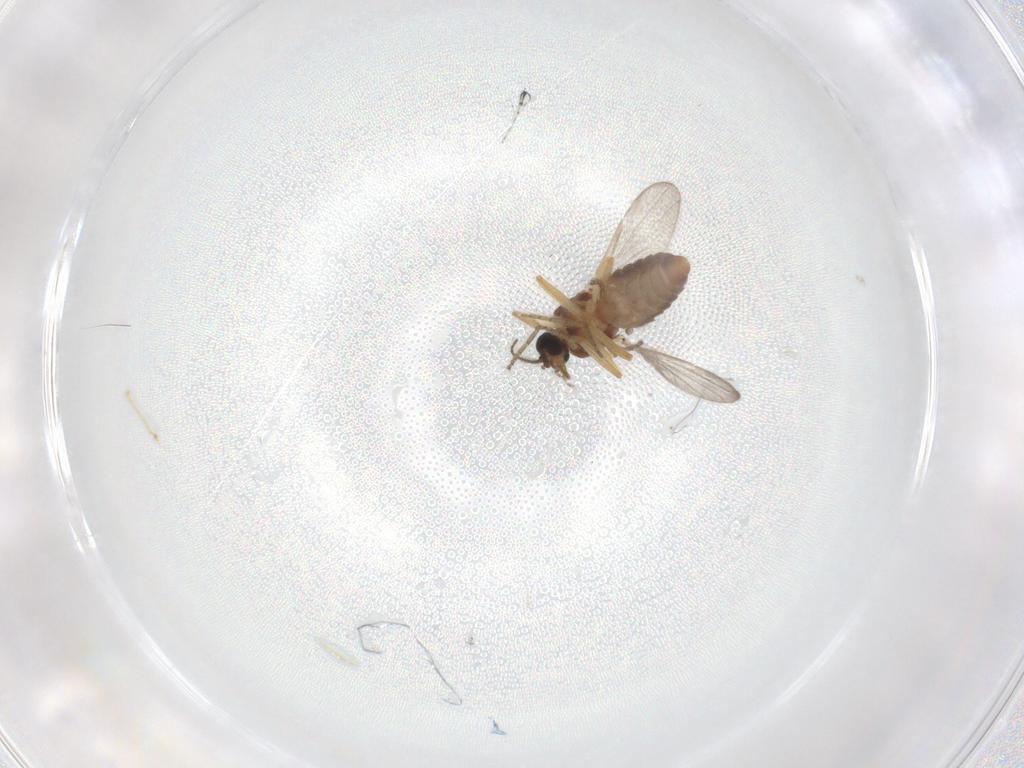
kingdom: Animalia
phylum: Arthropoda
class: Insecta
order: Diptera
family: Ceratopogonidae
